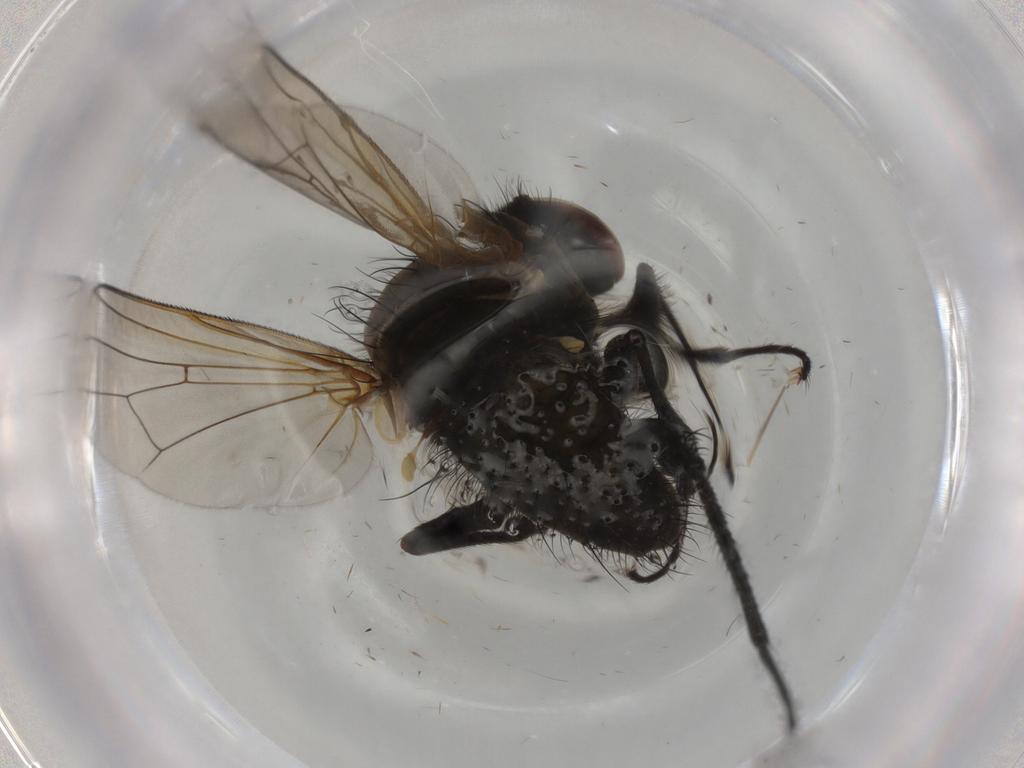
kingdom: Animalia
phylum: Arthropoda
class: Insecta
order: Diptera
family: Anthomyiidae
